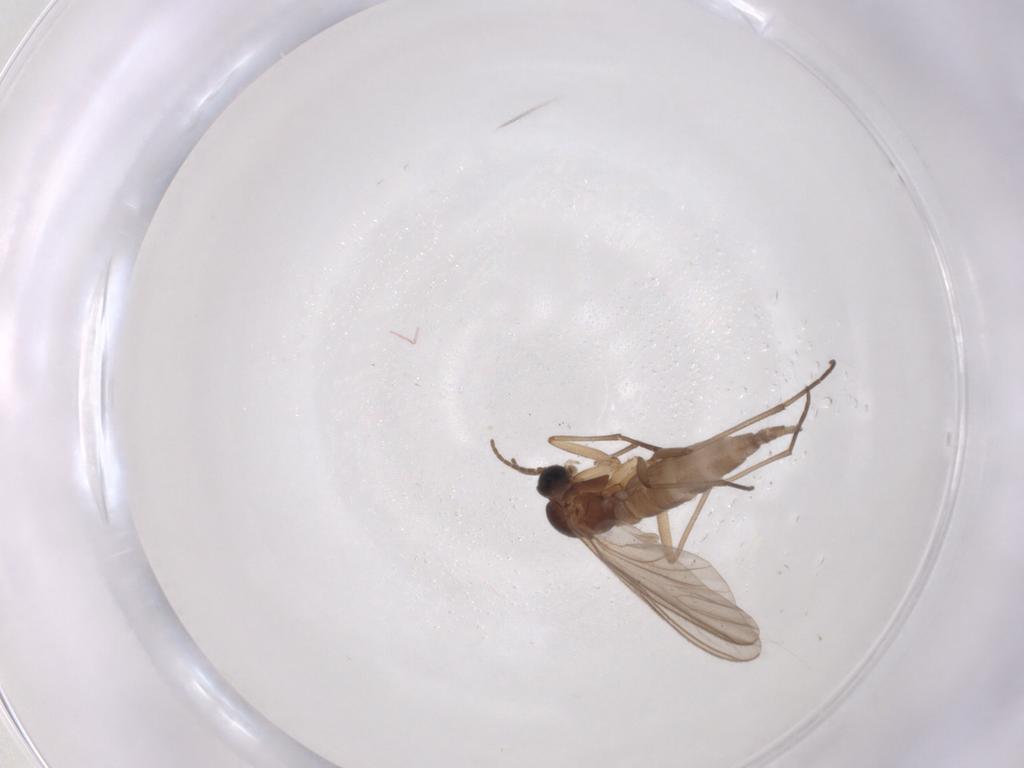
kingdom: Animalia
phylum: Arthropoda
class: Insecta
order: Diptera
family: Sciaridae
